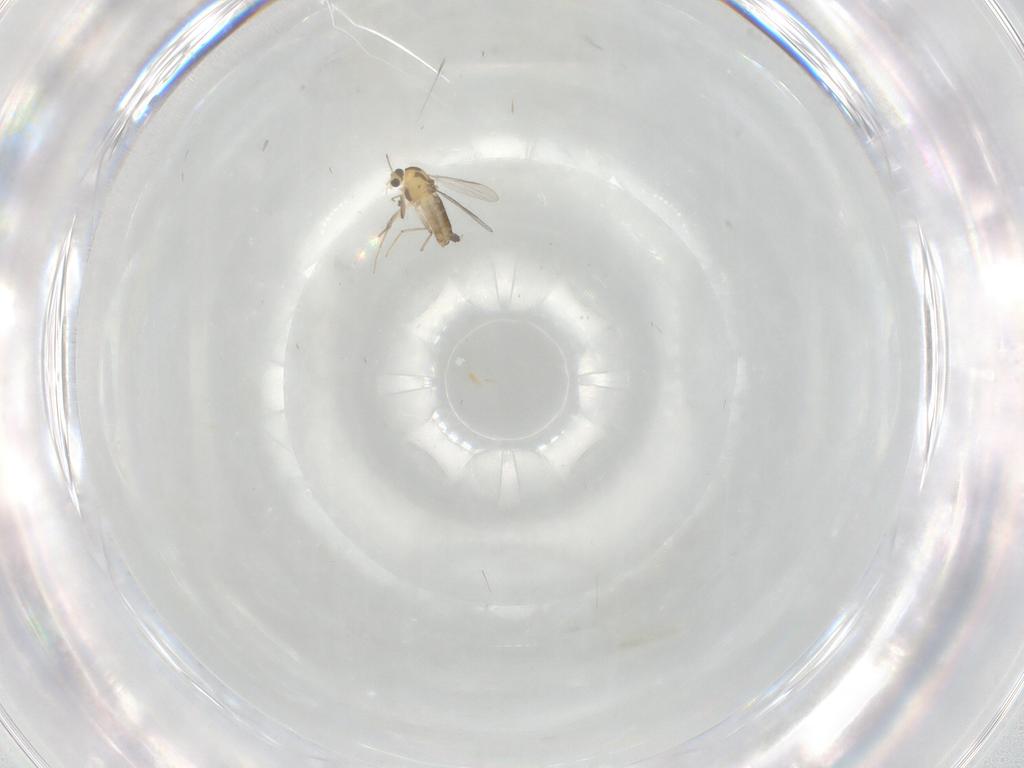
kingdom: Animalia
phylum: Arthropoda
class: Insecta
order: Diptera
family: Chironomidae
